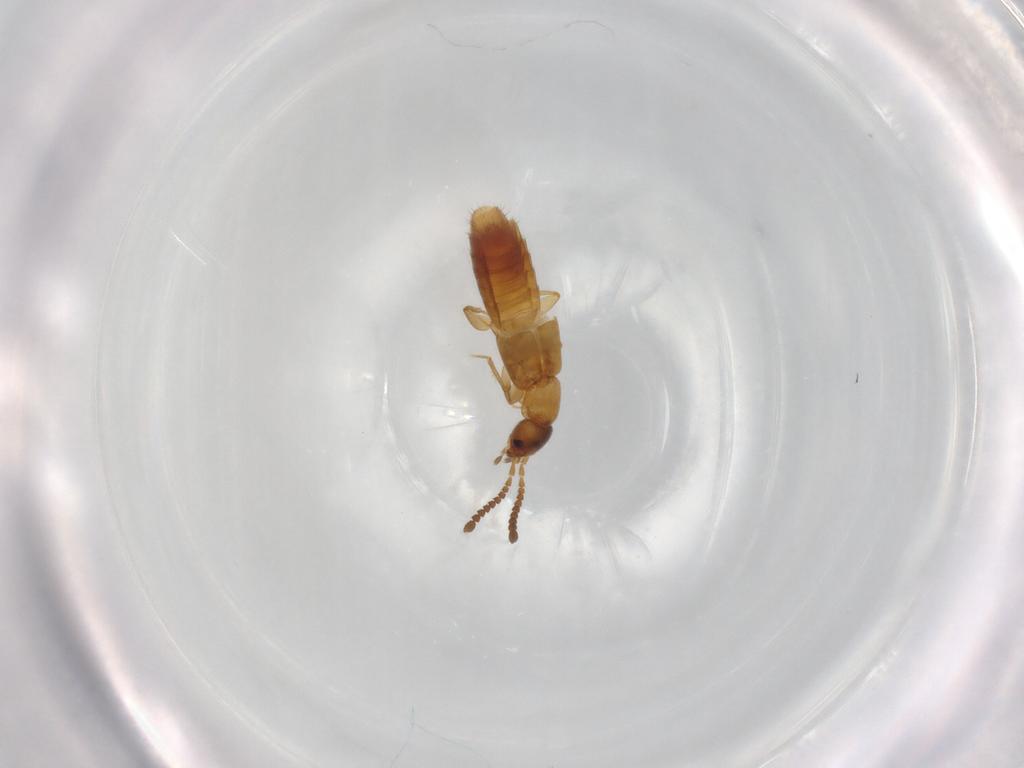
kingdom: Animalia
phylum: Arthropoda
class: Insecta
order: Coleoptera
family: Staphylinidae
